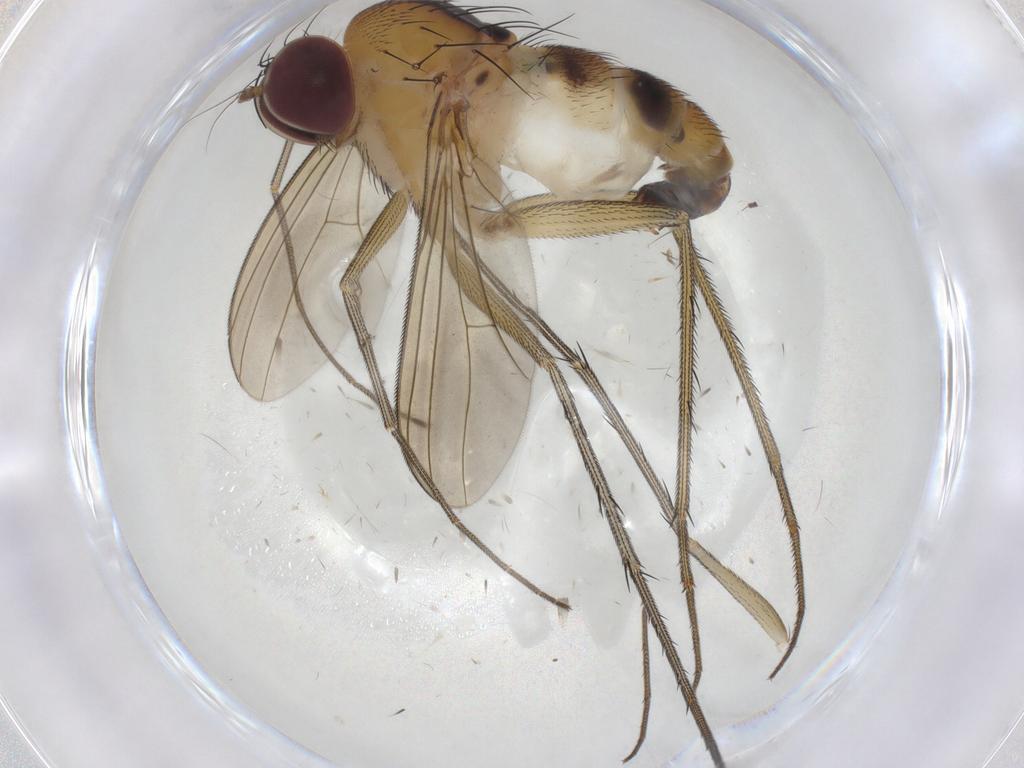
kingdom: Animalia
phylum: Arthropoda
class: Insecta
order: Diptera
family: Dolichopodidae
